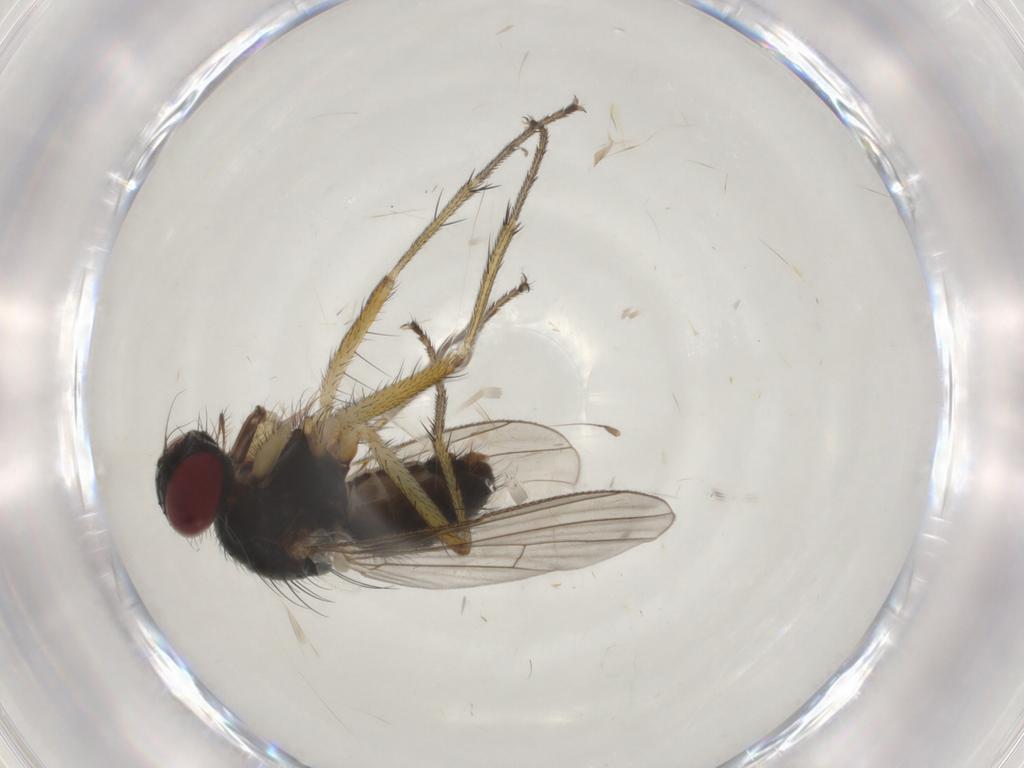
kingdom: Animalia
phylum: Arthropoda
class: Insecta
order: Diptera
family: Muscidae
